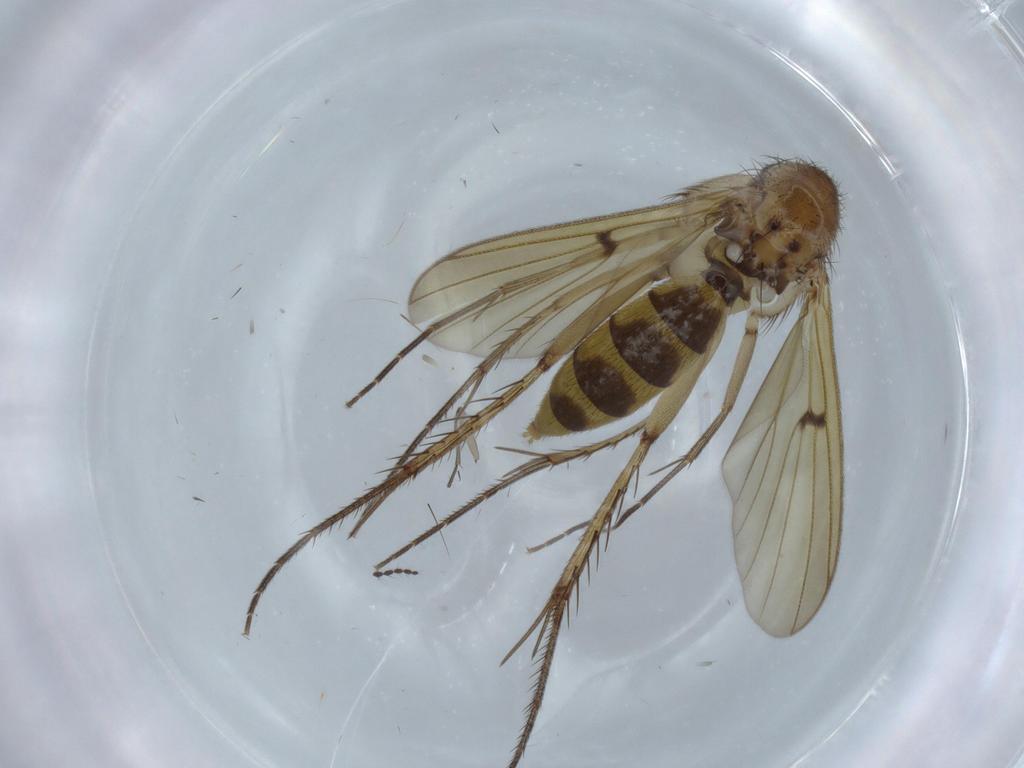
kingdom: Animalia
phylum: Arthropoda
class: Insecta
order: Diptera
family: Limoniidae
